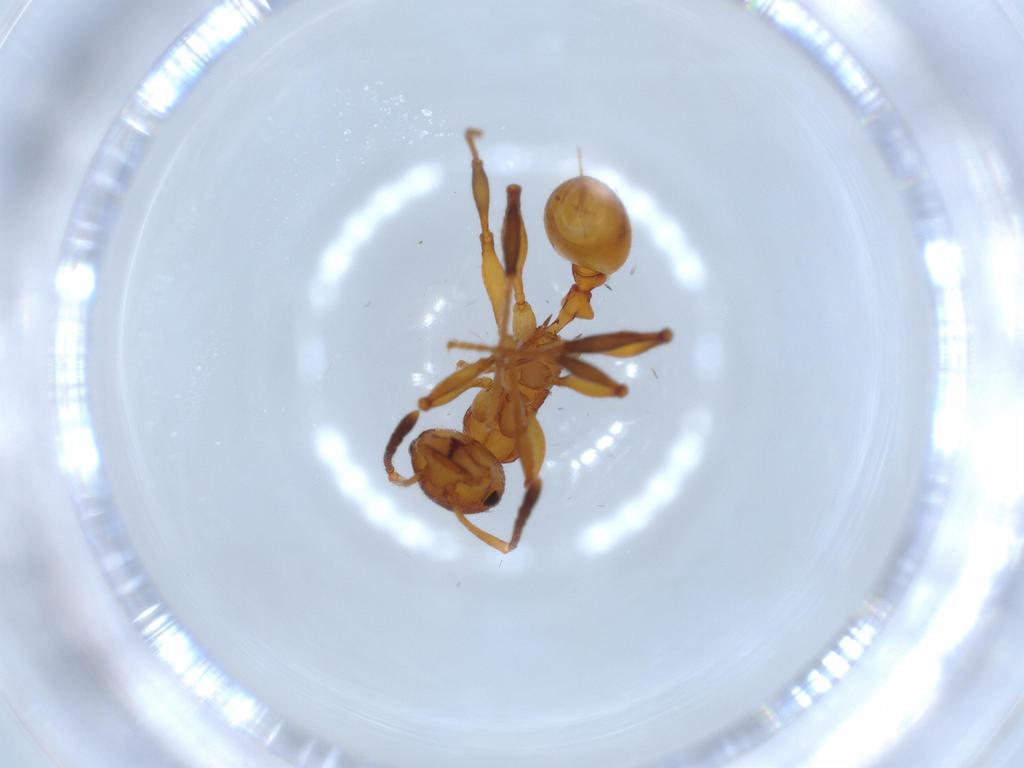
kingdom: Animalia
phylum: Arthropoda
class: Insecta
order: Hymenoptera
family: Formicidae
